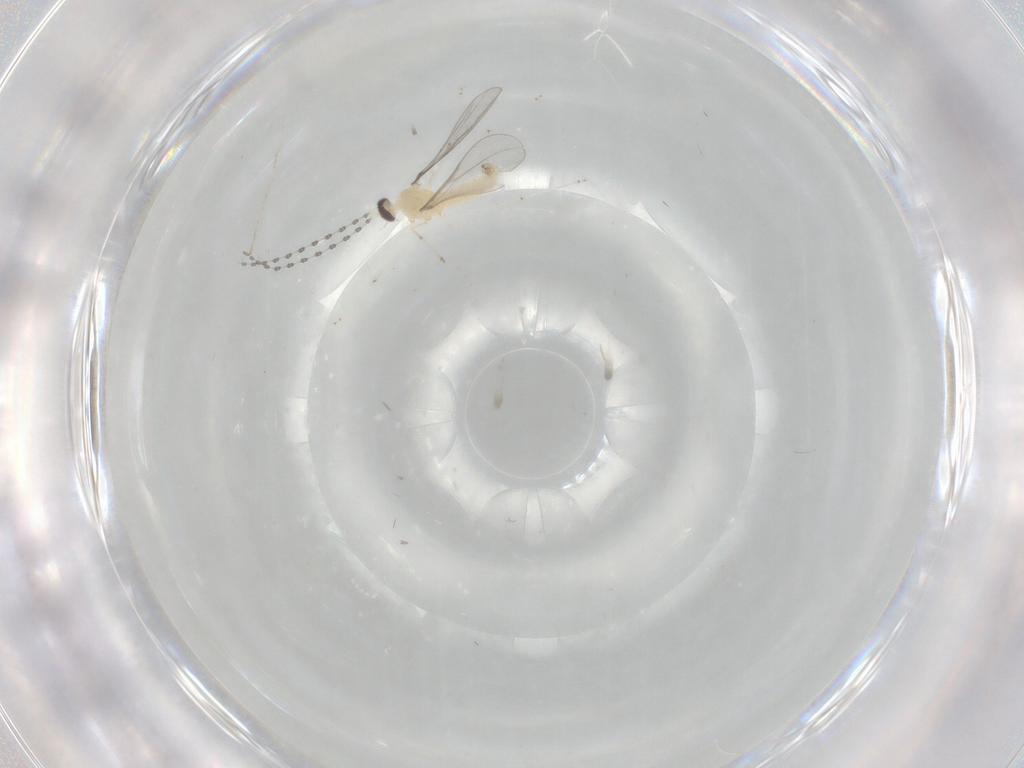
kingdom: Animalia
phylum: Arthropoda
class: Insecta
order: Diptera
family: Cecidomyiidae
